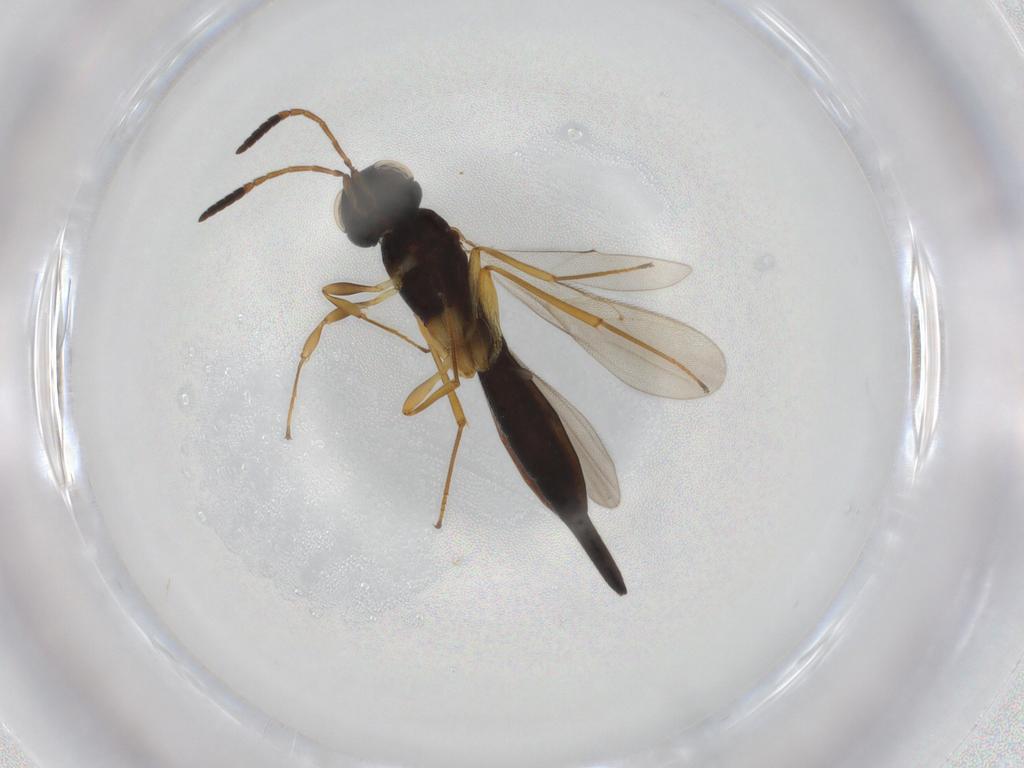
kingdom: Animalia
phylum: Arthropoda
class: Insecta
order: Hymenoptera
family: Scelionidae
